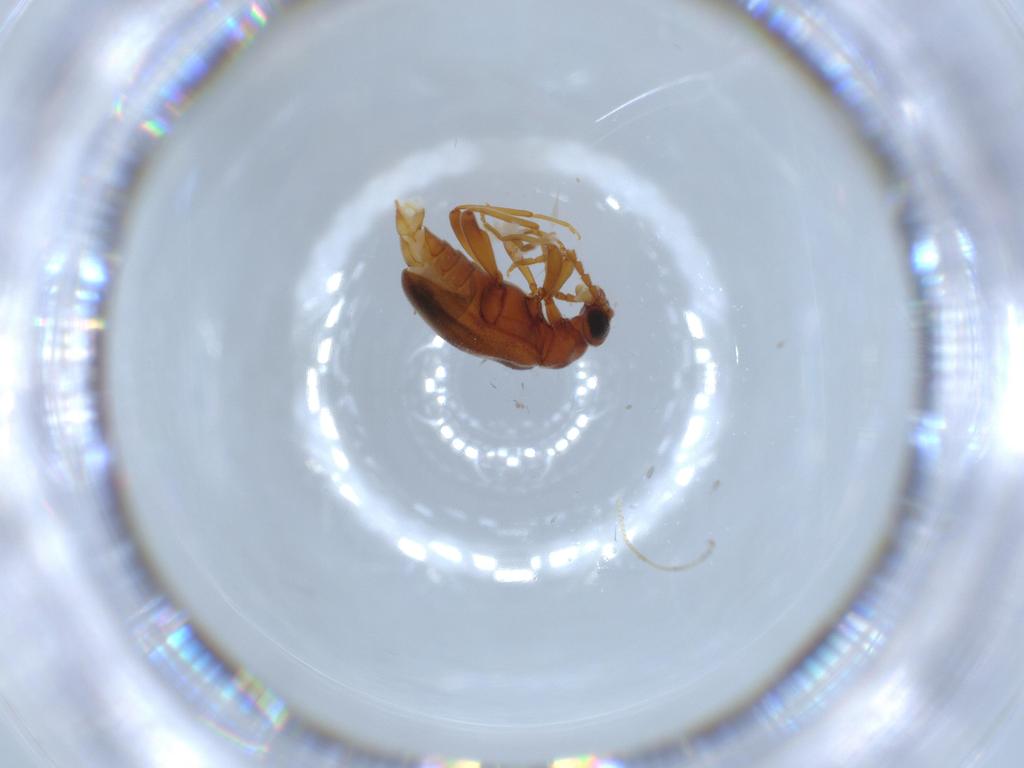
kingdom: Animalia
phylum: Arthropoda
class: Insecta
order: Coleoptera
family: Aderidae
